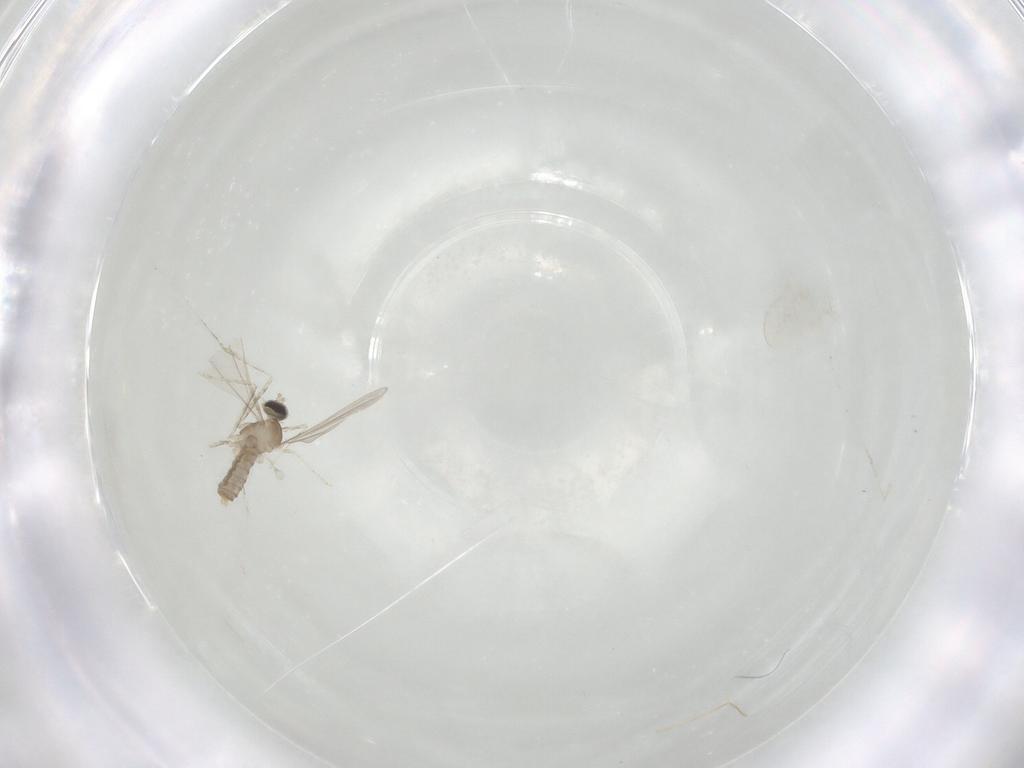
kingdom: Animalia
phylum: Arthropoda
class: Insecta
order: Diptera
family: Cecidomyiidae
